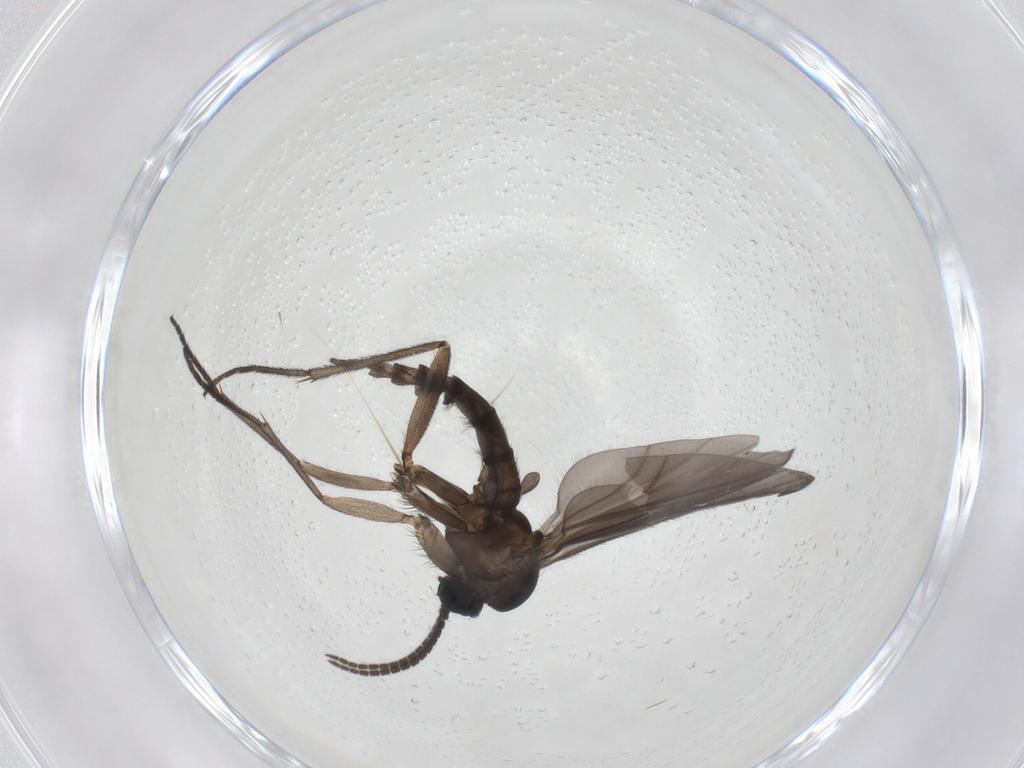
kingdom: Animalia
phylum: Arthropoda
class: Insecta
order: Diptera
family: Sciaridae
